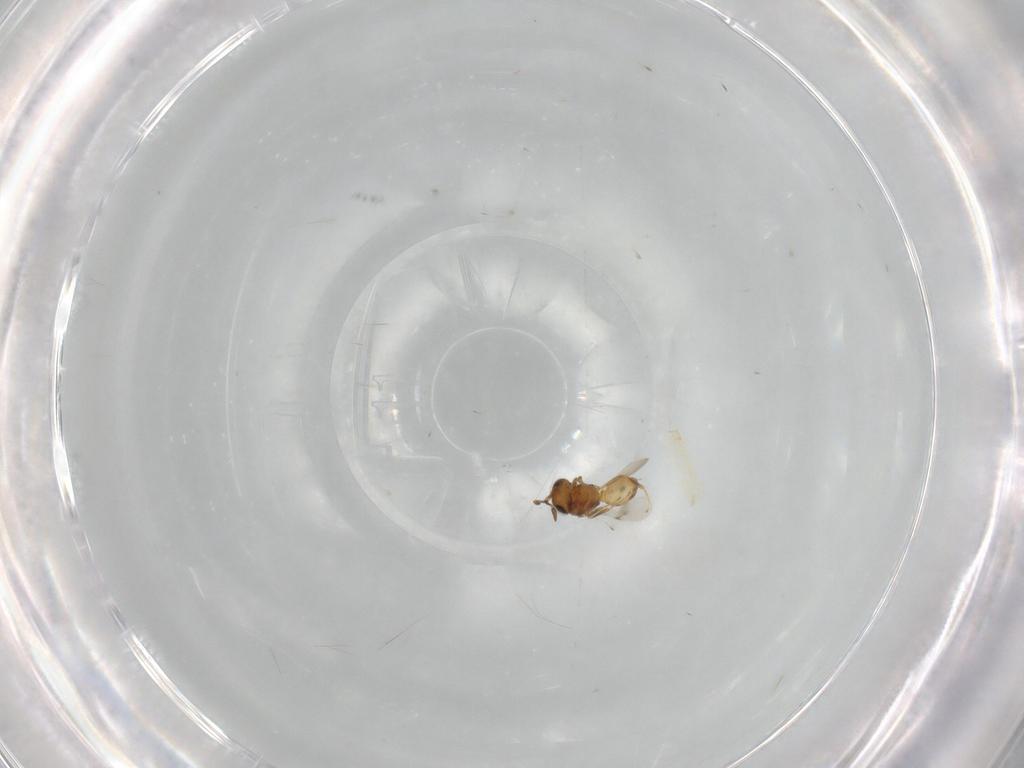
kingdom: Animalia
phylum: Arthropoda
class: Insecta
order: Hymenoptera
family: Scelionidae
